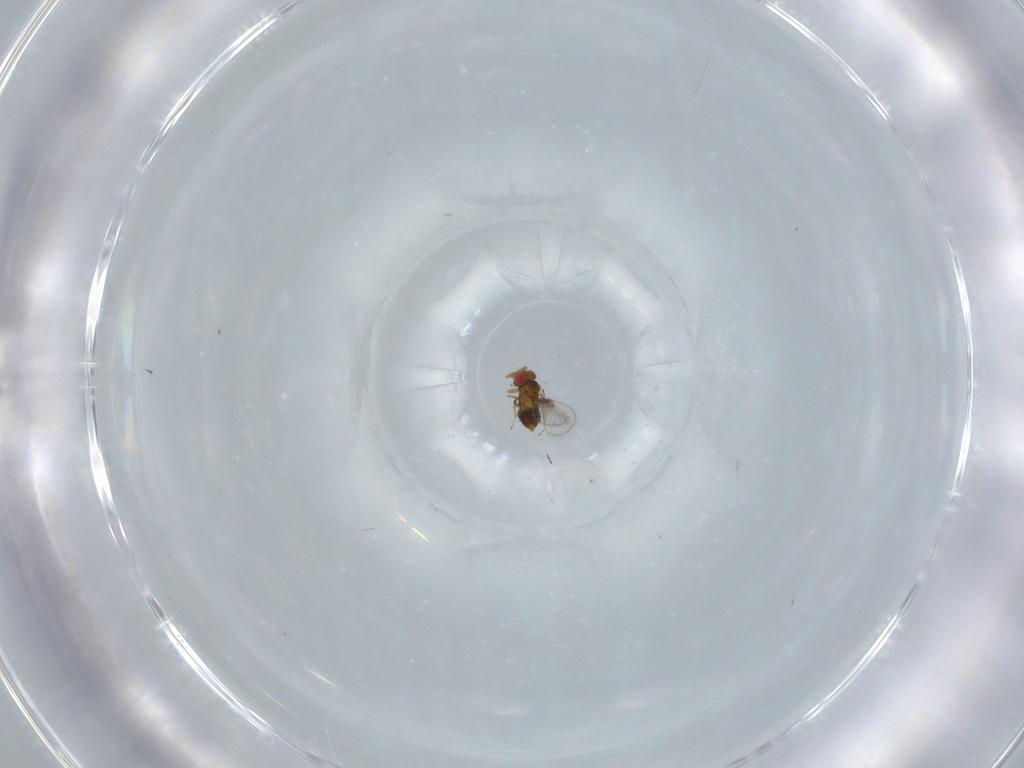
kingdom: Animalia
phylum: Arthropoda
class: Insecta
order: Hymenoptera
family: Trichogrammatidae
